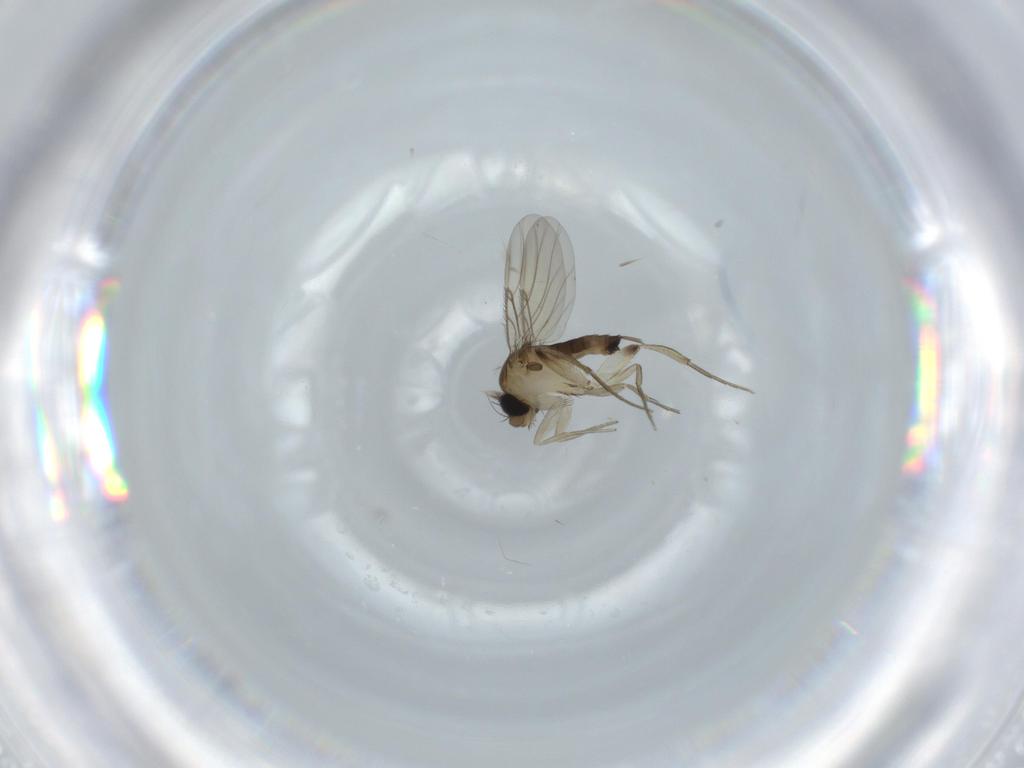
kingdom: Animalia
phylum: Arthropoda
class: Insecta
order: Diptera
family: Phoridae
